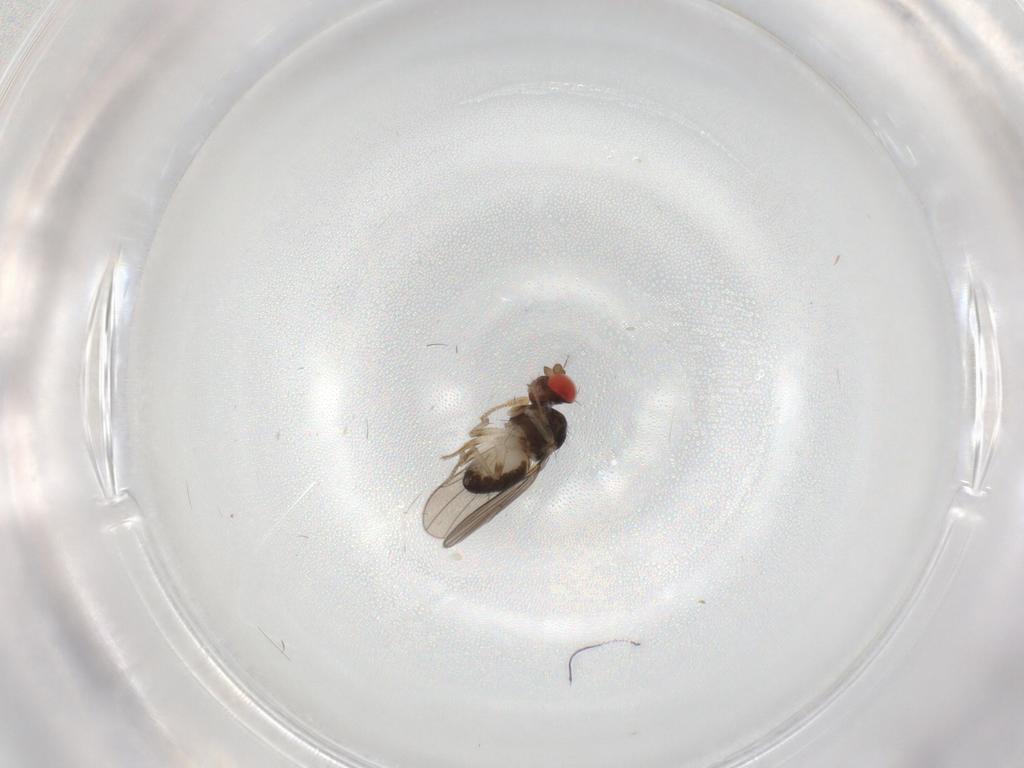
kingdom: Animalia
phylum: Arthropoda
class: Insecta
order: Diptera
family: Drosophilidae
